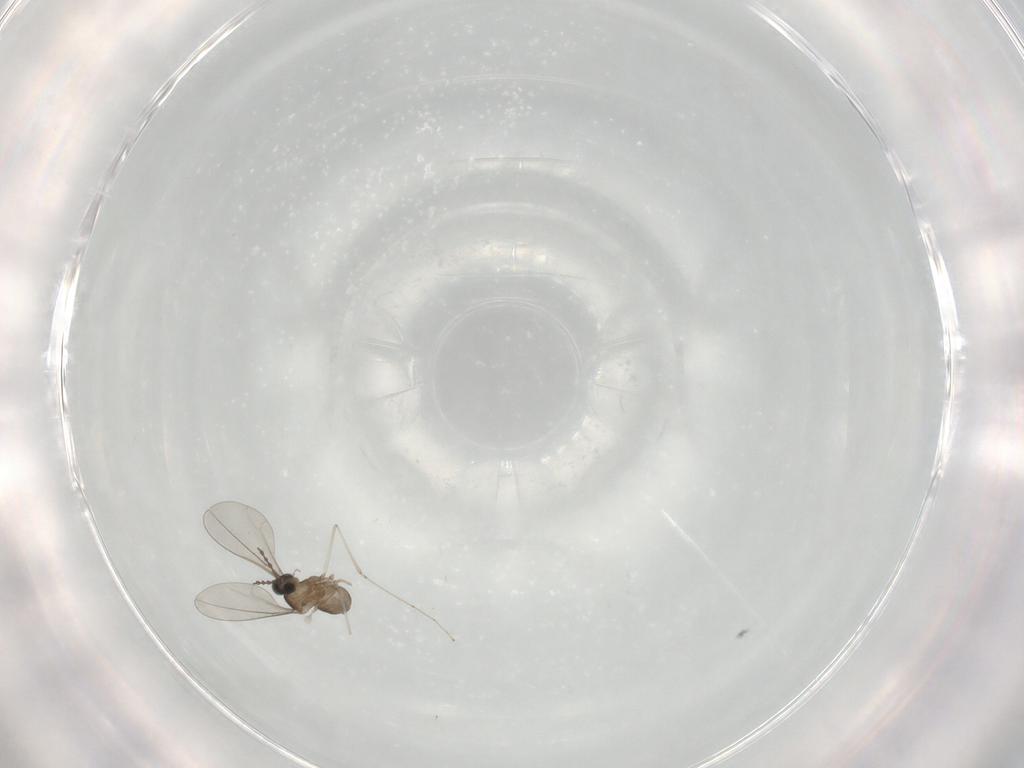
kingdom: Animalia
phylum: Arthropoda
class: Insecta
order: Diptera
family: Cecidomyiidae
